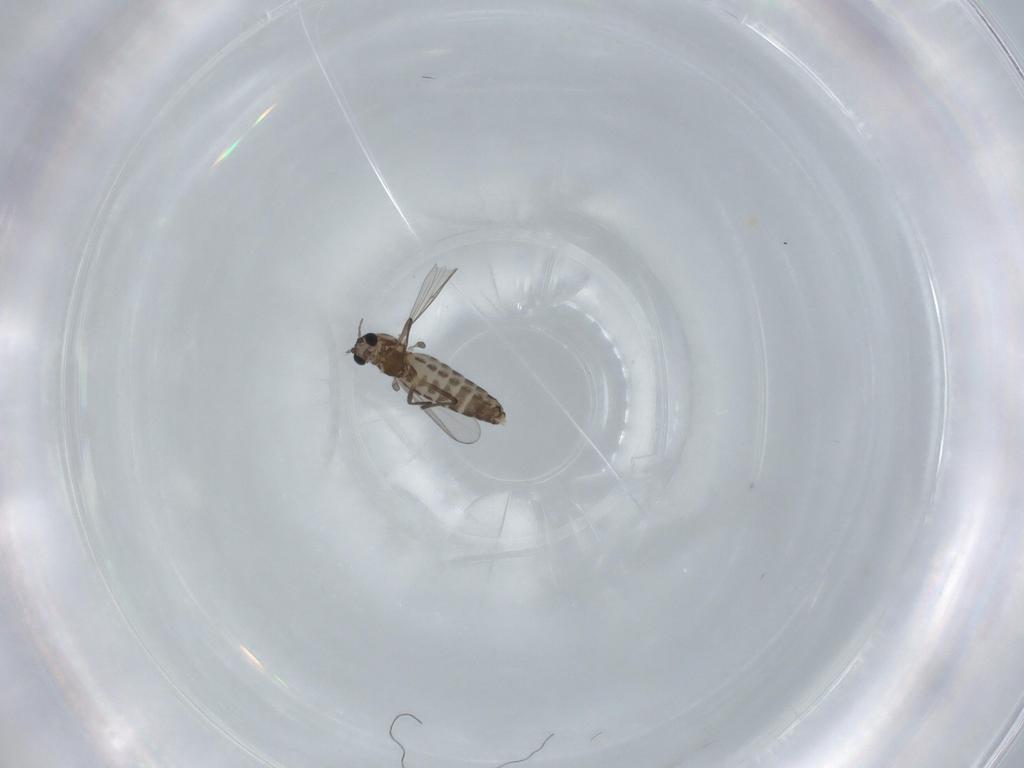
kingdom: Animalia
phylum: Arthropoda
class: Insecta
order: Diptera
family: Chironomidae
